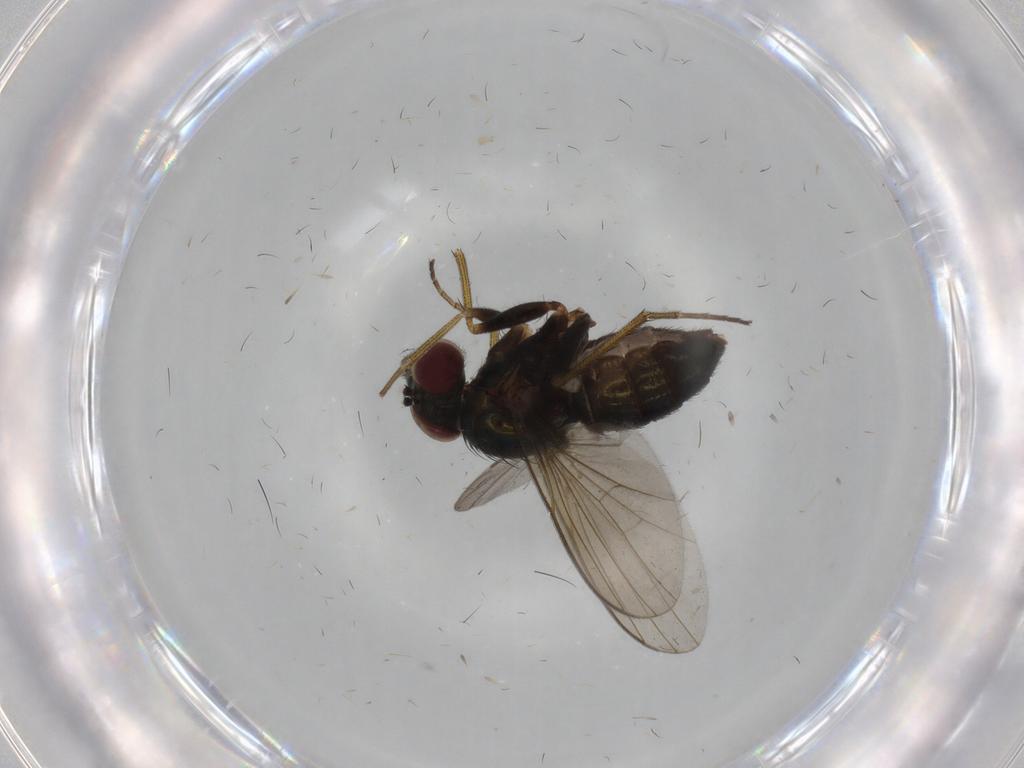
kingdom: Animalia
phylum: Arthropoda
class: Insecta
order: Diptera
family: Dolichopodidae
